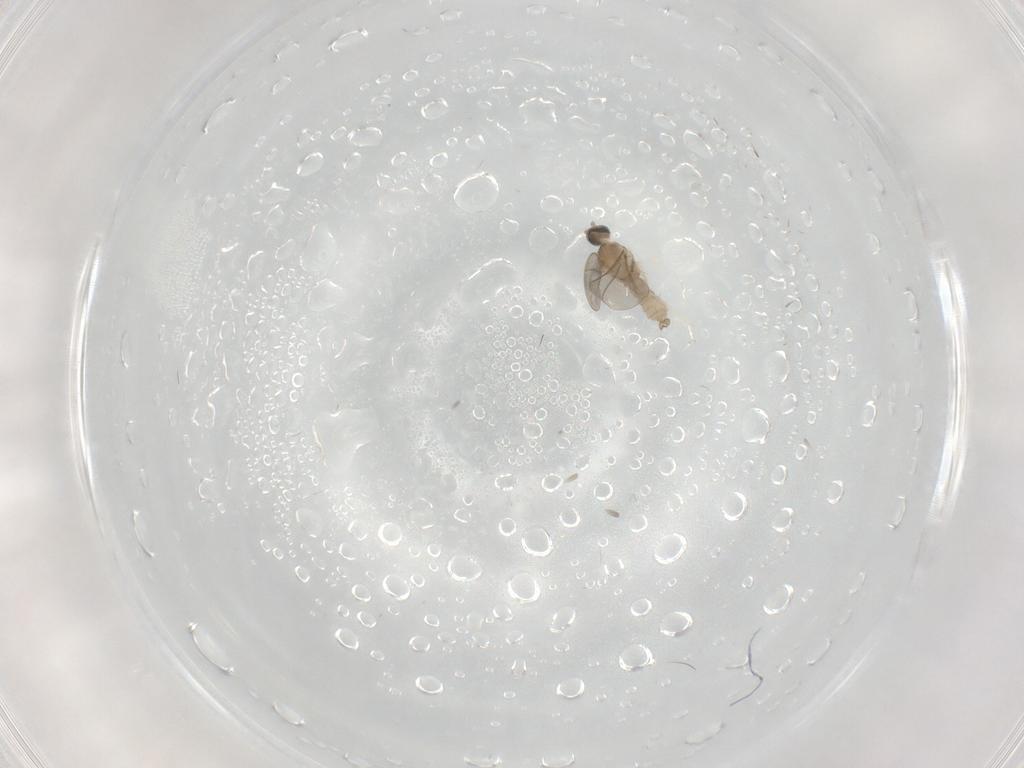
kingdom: Animalia
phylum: Arthropoda
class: Insecta
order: Diptera
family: Cecidomyiidae
